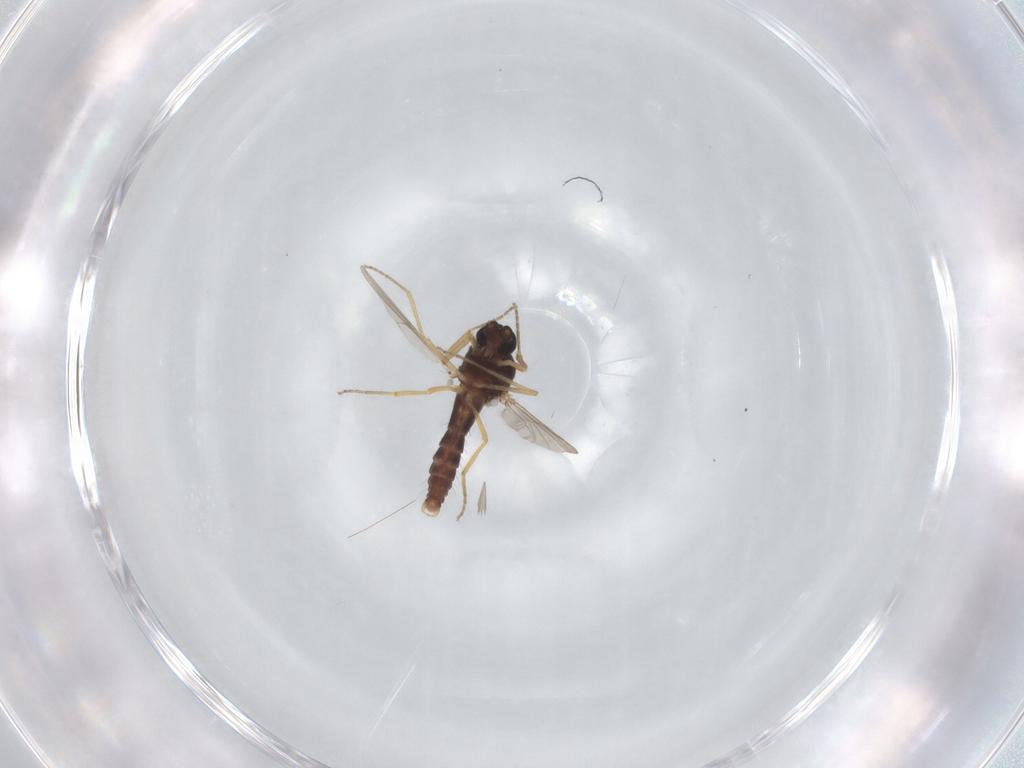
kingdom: Animalia
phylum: Arthropoda
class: Insecta
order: Diptera
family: Ceratopogonidae
